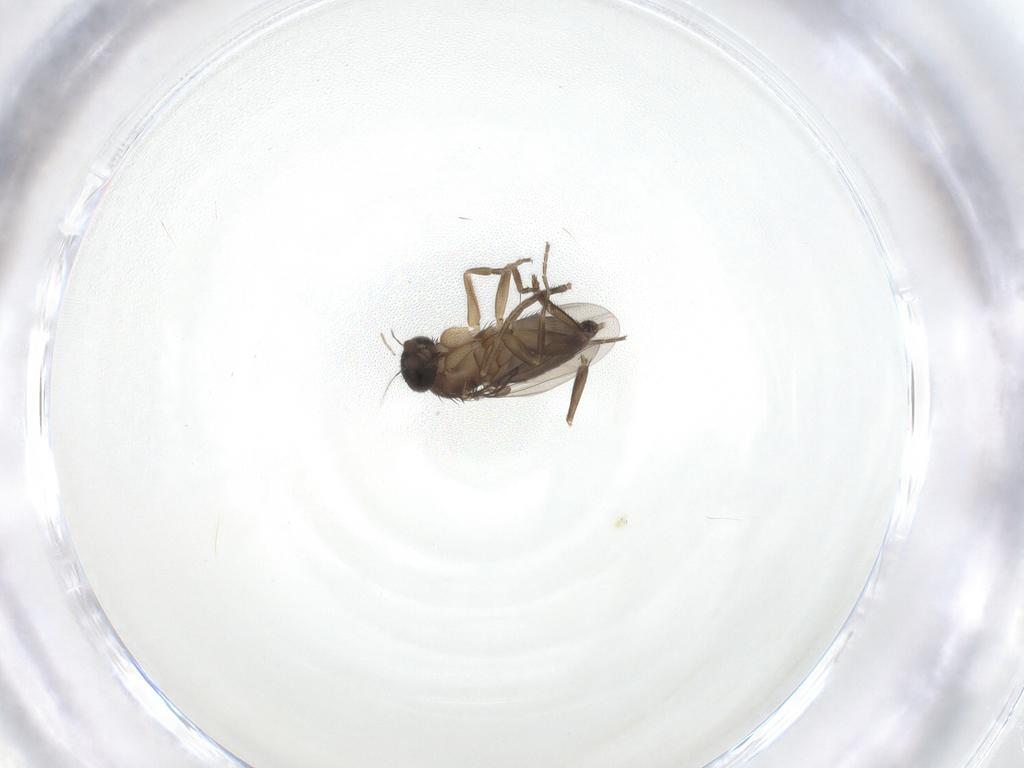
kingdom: Animalia
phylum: Arthropoda
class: Insecta
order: Diptera
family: Phoridae
